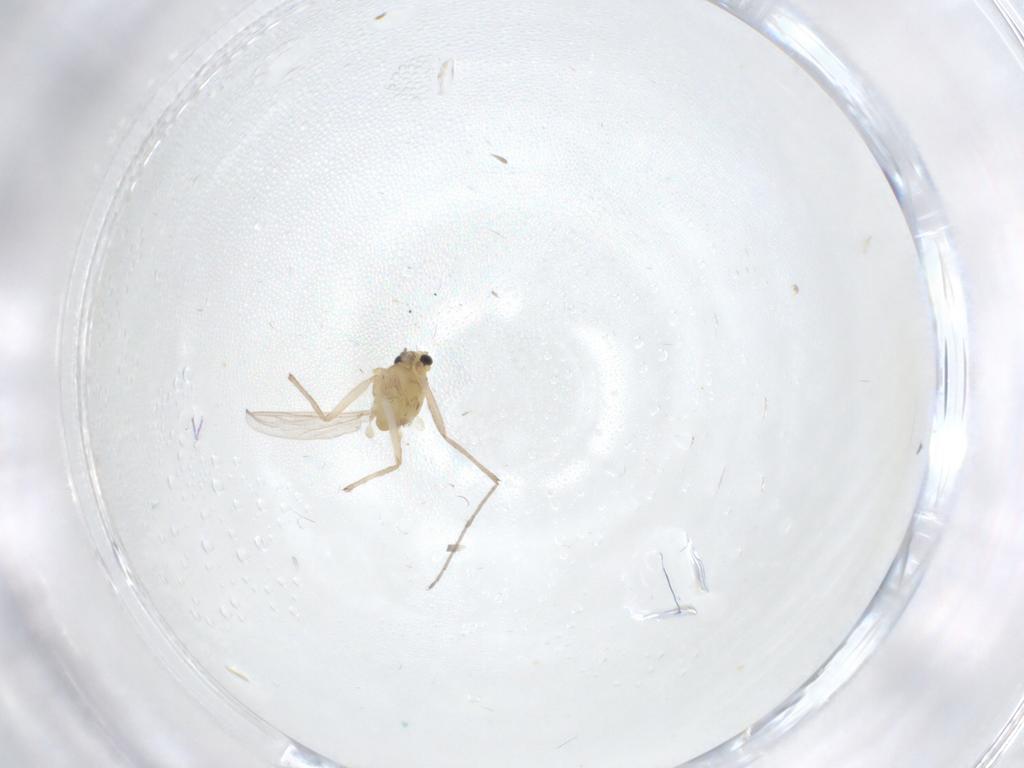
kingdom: Animalia
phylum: Arthropoda
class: Insecta
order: Diptera
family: Chironomidae
